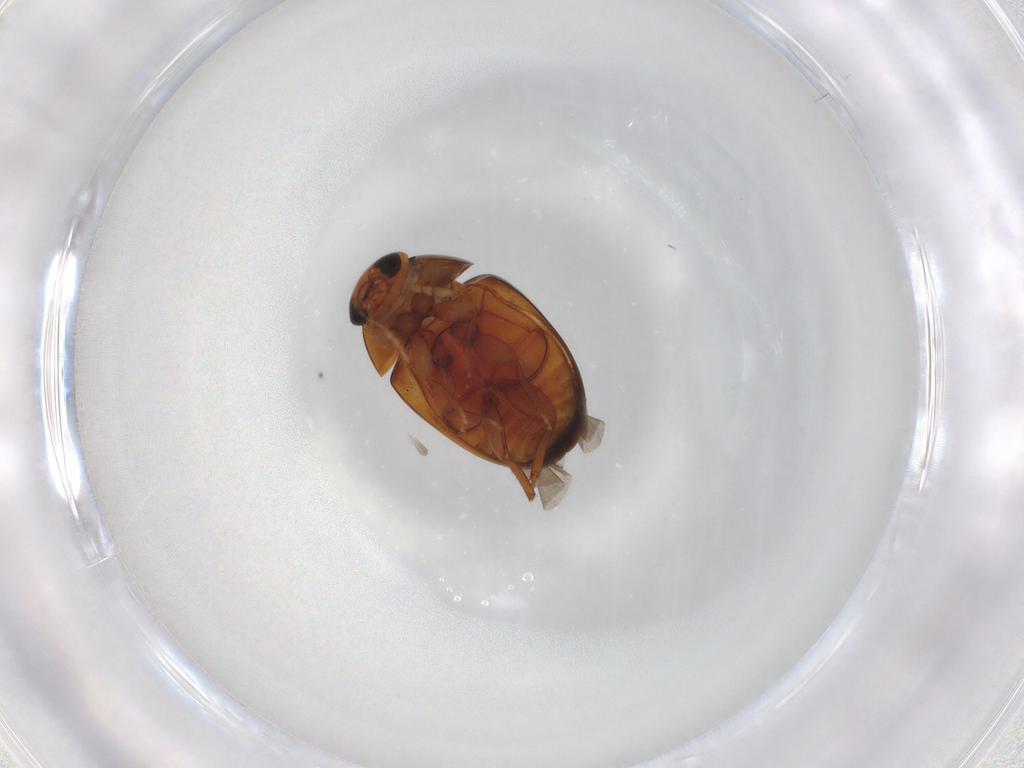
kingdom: Animalia
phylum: Arthropoda
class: Insecta
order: Coleoptera
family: Phalacridae
